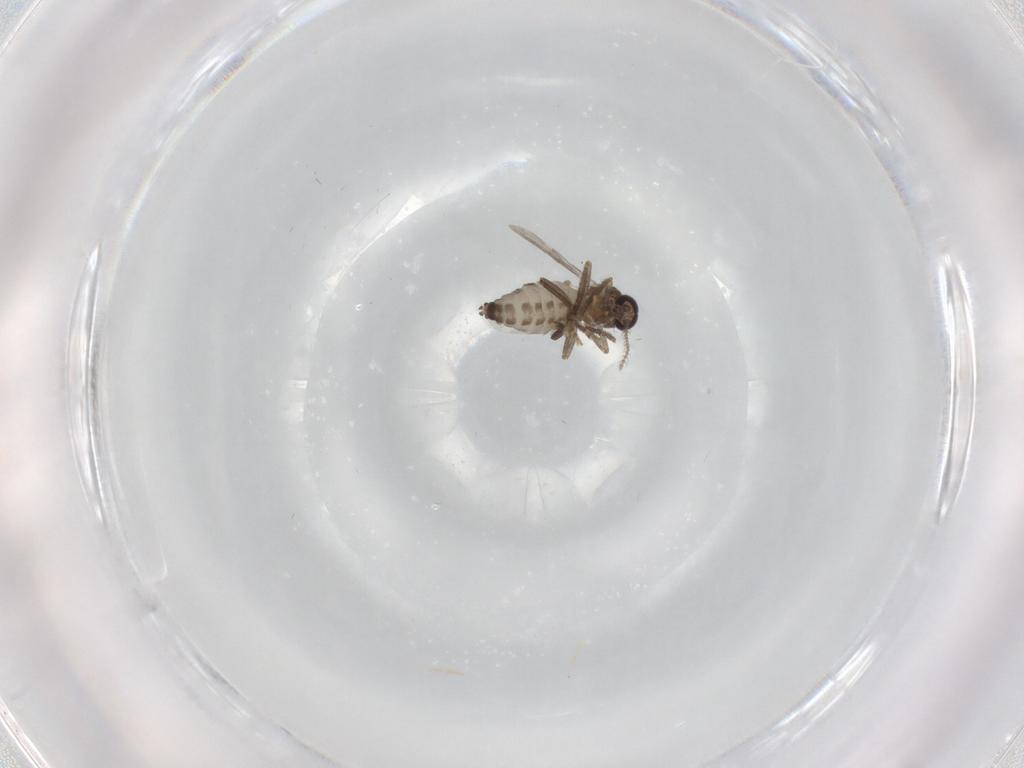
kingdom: Animalia
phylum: Arthropoda
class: Insecta
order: Diptera
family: Ceratopogonidae
